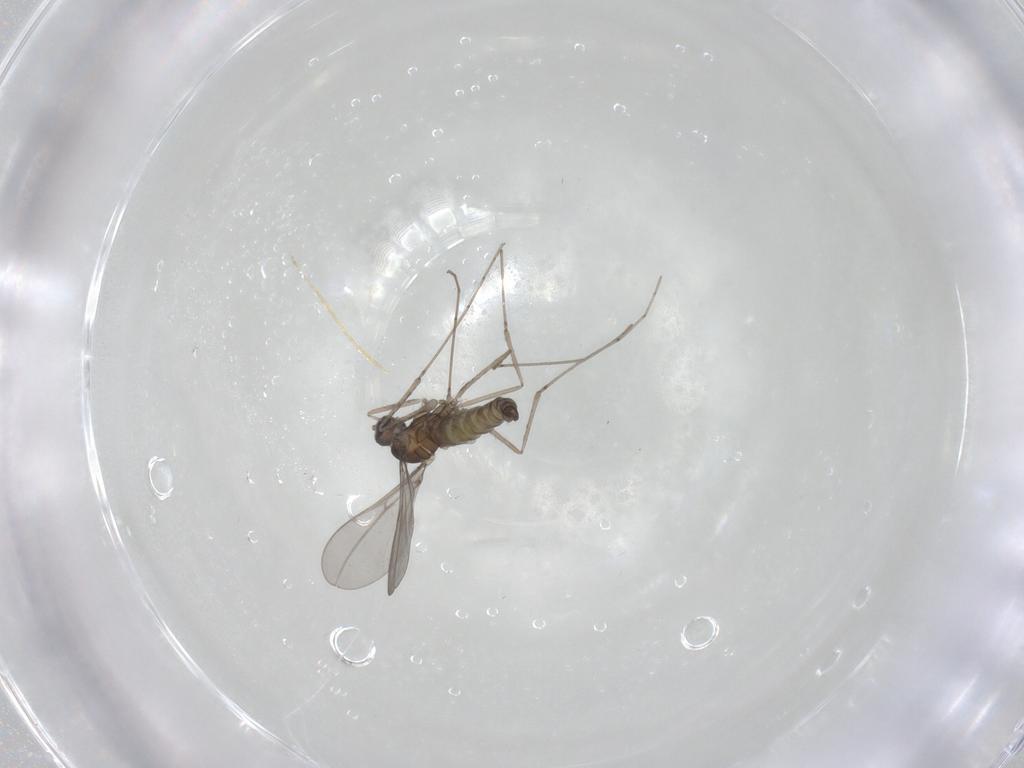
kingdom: Animalia
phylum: Arthropoda
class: Insecta
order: Diptera
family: Cecidomyiidae
